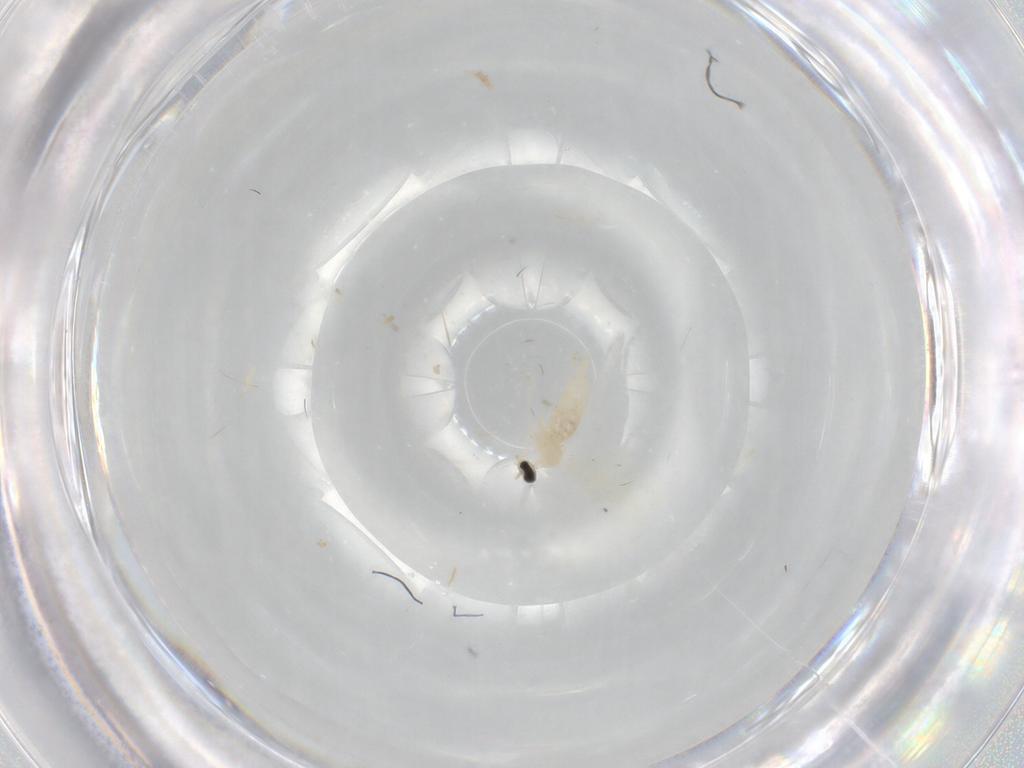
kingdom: Animalia
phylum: Arthropoda
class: Insecta
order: Diptera
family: Cecidomyiidae
